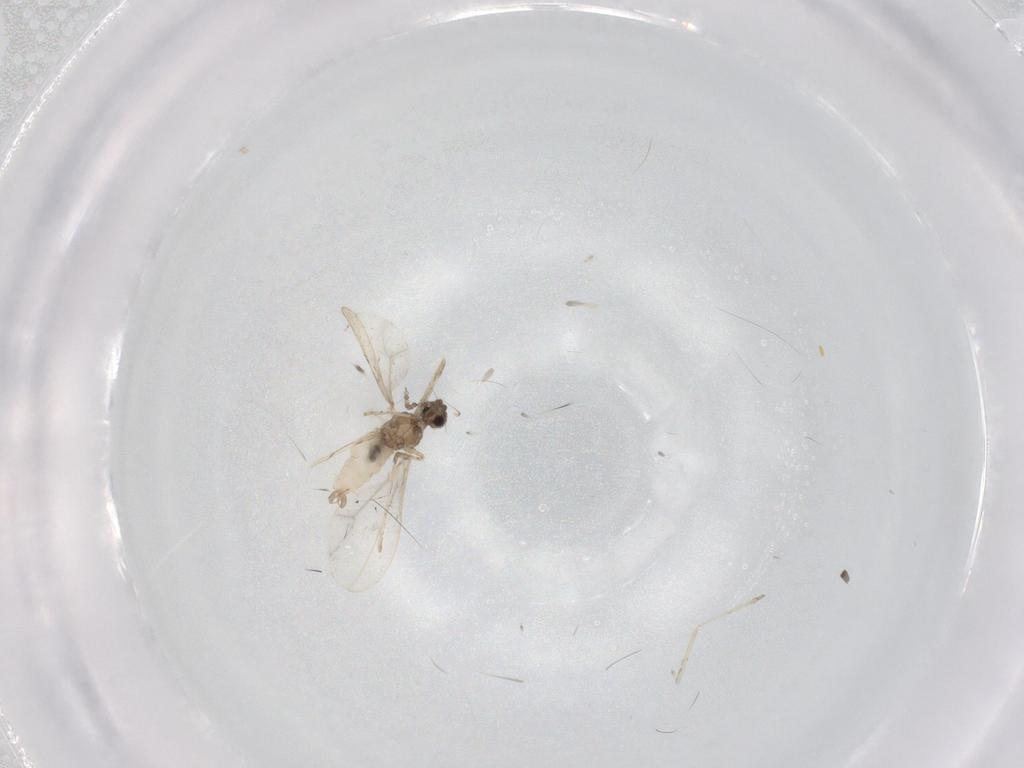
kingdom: Animalia
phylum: Arthropoda
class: Insecta
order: Diptera
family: Cecidomyiidae
